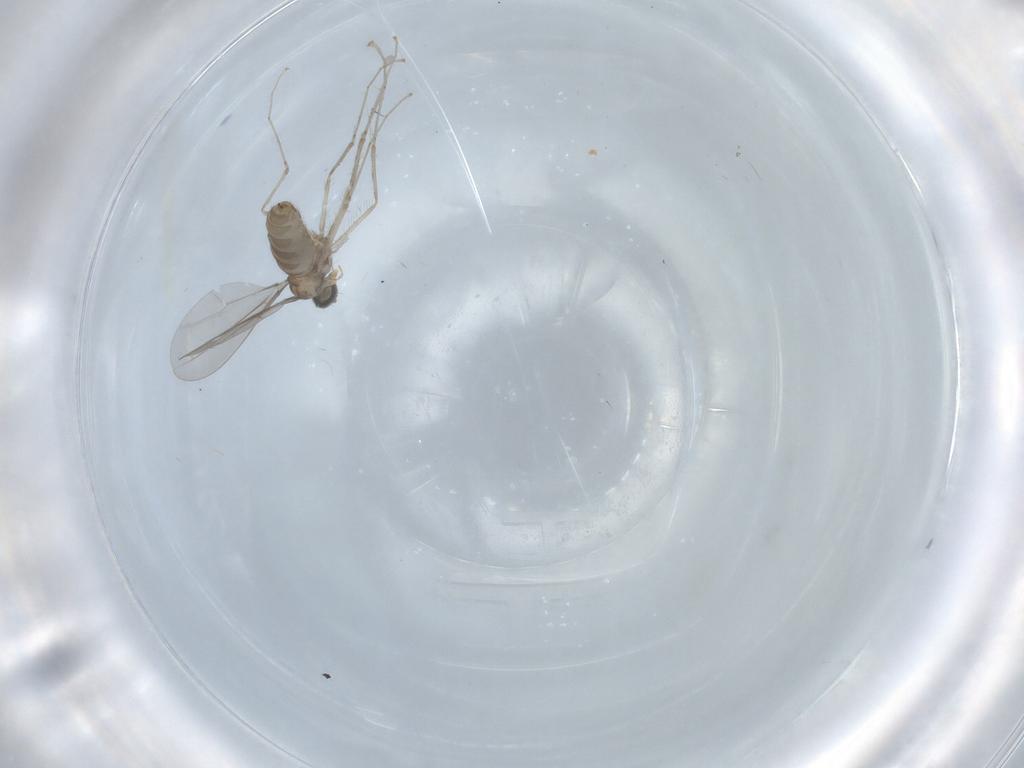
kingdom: Animalia
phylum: Arthropoda
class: Insecta
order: Diptera
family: Cecidomyiidae
